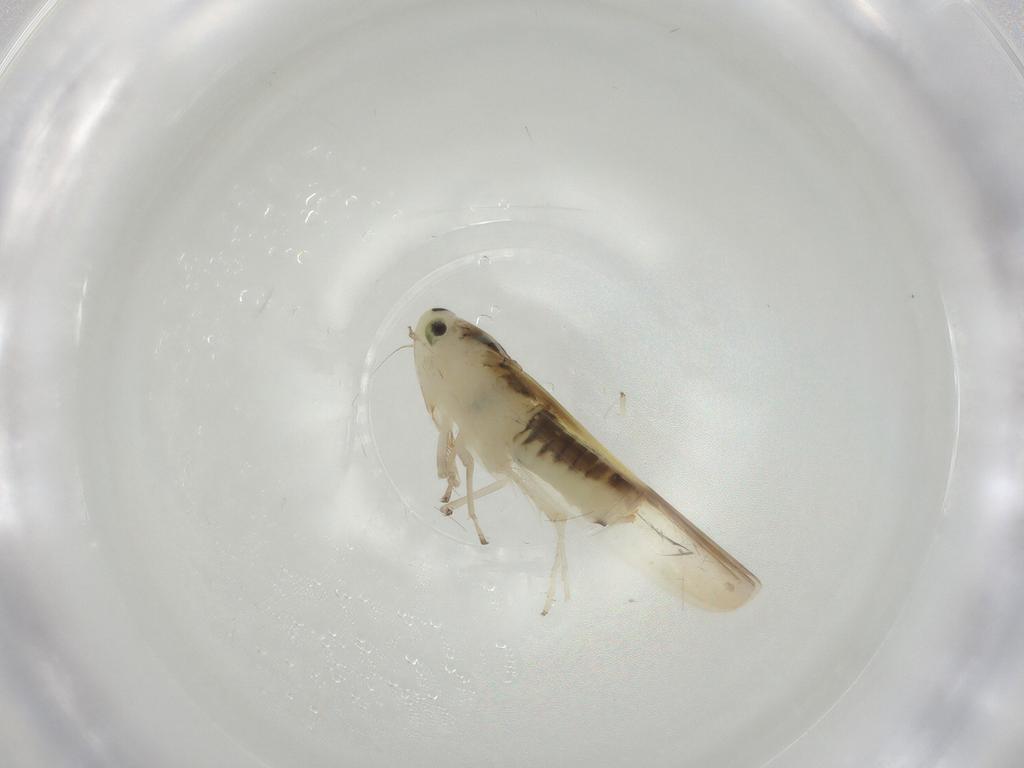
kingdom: Animalia
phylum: Arthropoda
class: Insecta
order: Hemiptera
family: Cicadellidae
